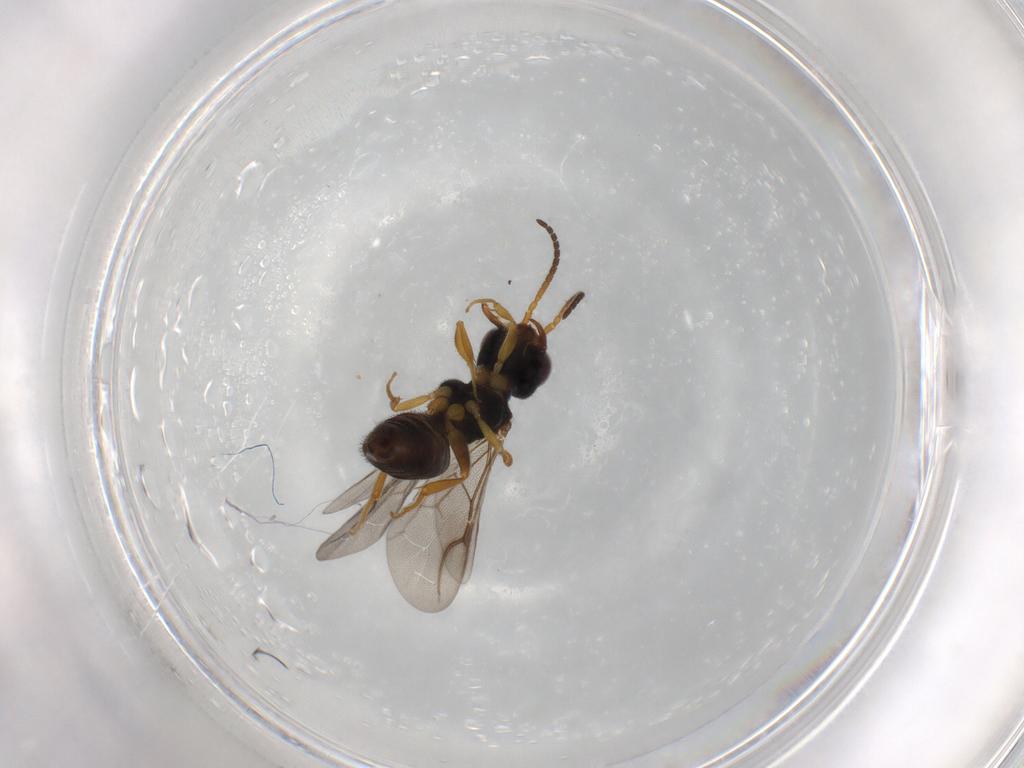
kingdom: Animalia
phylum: Arthropoda
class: Insecta
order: Hymenoptera
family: Bethylidae
